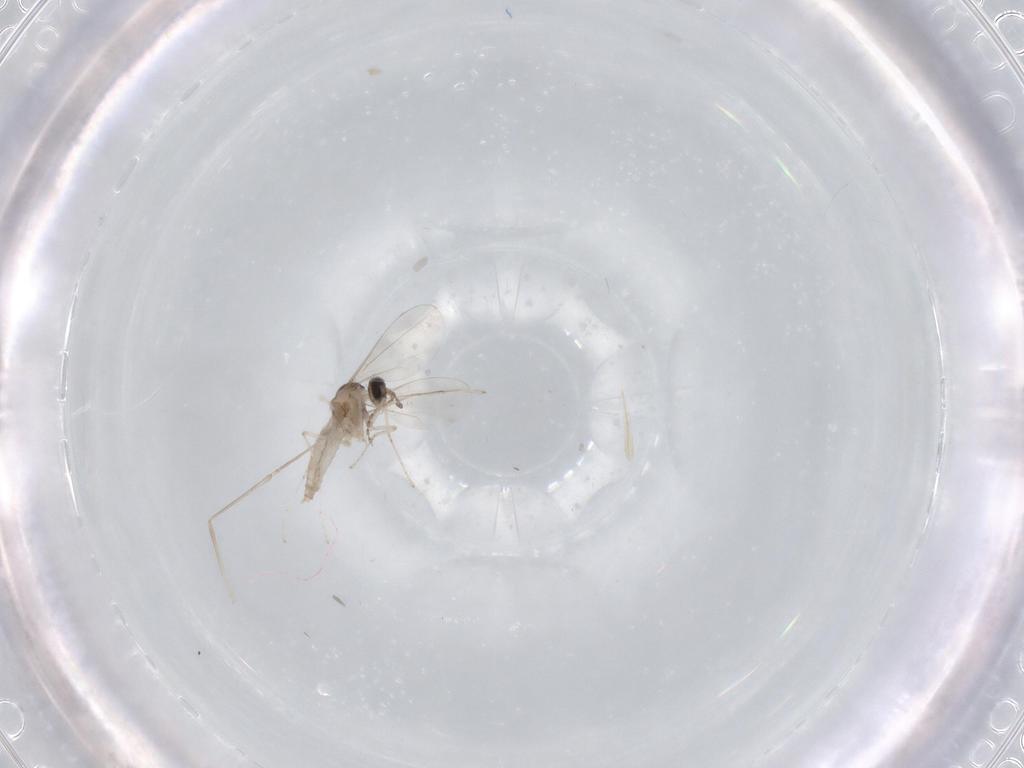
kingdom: Animalia
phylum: Arthropoda
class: Insecta
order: Diptera
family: Cecidomyiidae
